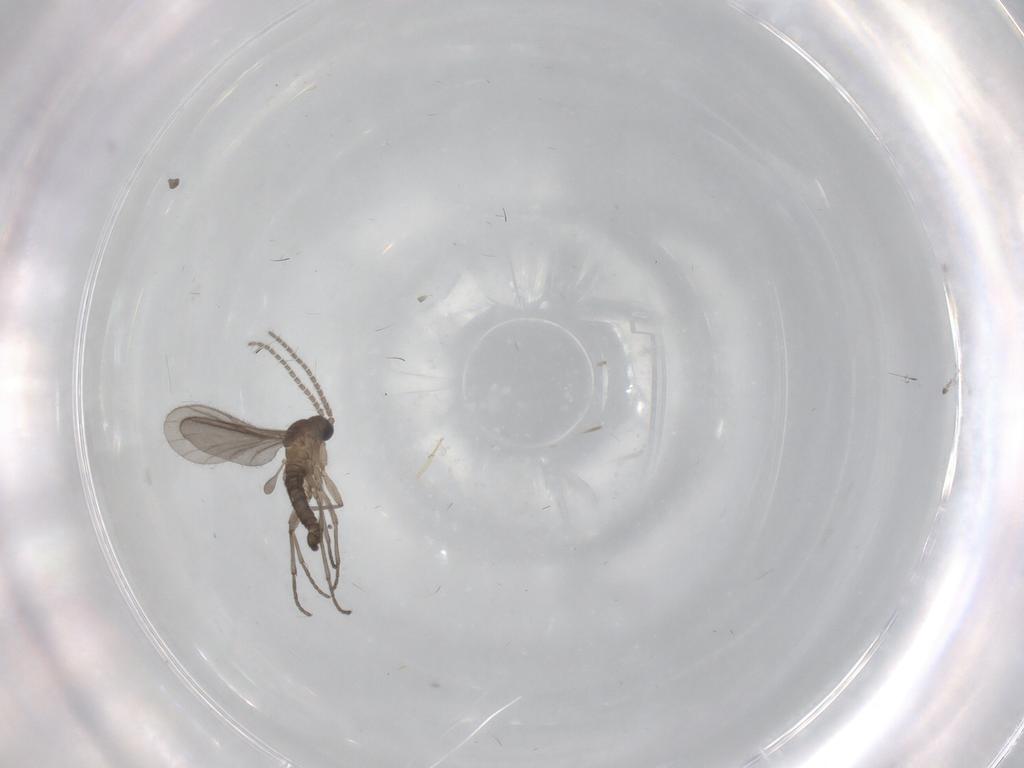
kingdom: Animalia
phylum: Arthropoda
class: Insecta
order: Diptera
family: Sciaridae
